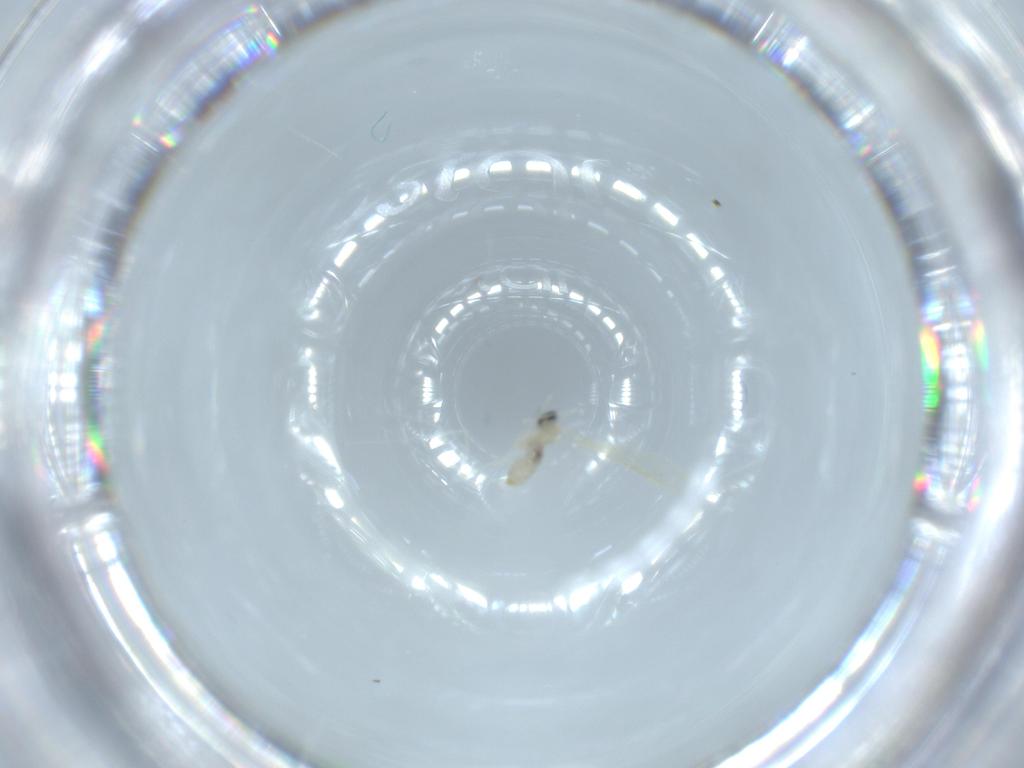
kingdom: Animalia
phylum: Arthropoda
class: Insecta
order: Diptera
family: Cecidomyiidae
